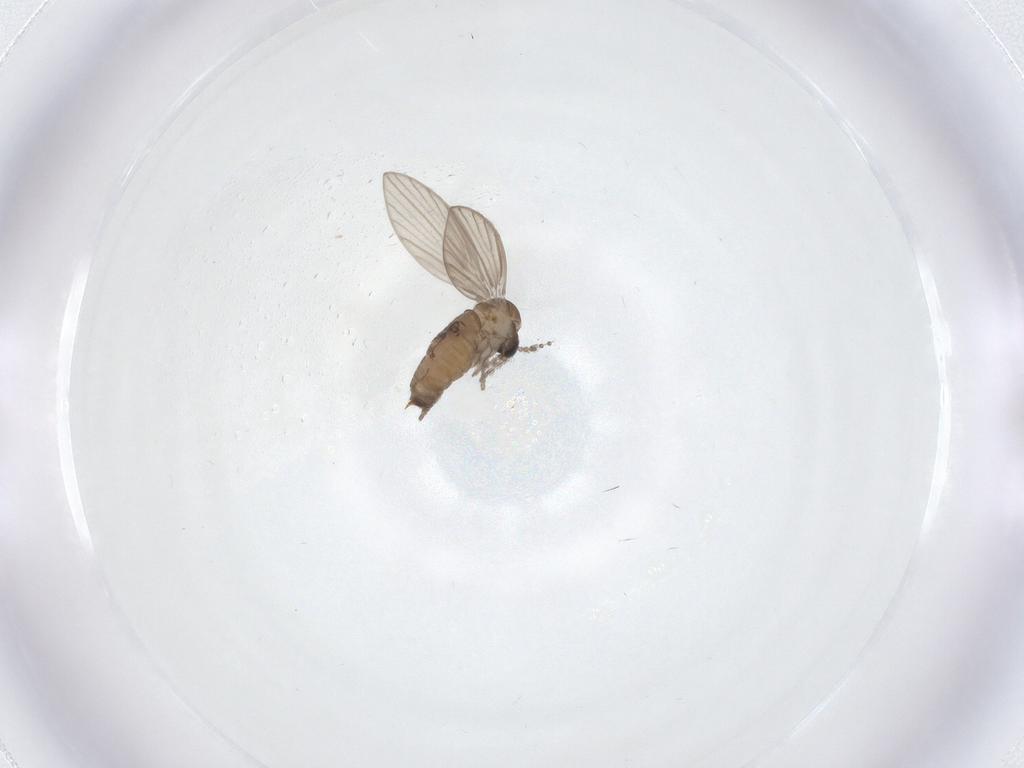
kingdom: Animalia
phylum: Arthropoda
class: Insecta
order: Diptera
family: Psychodidae
